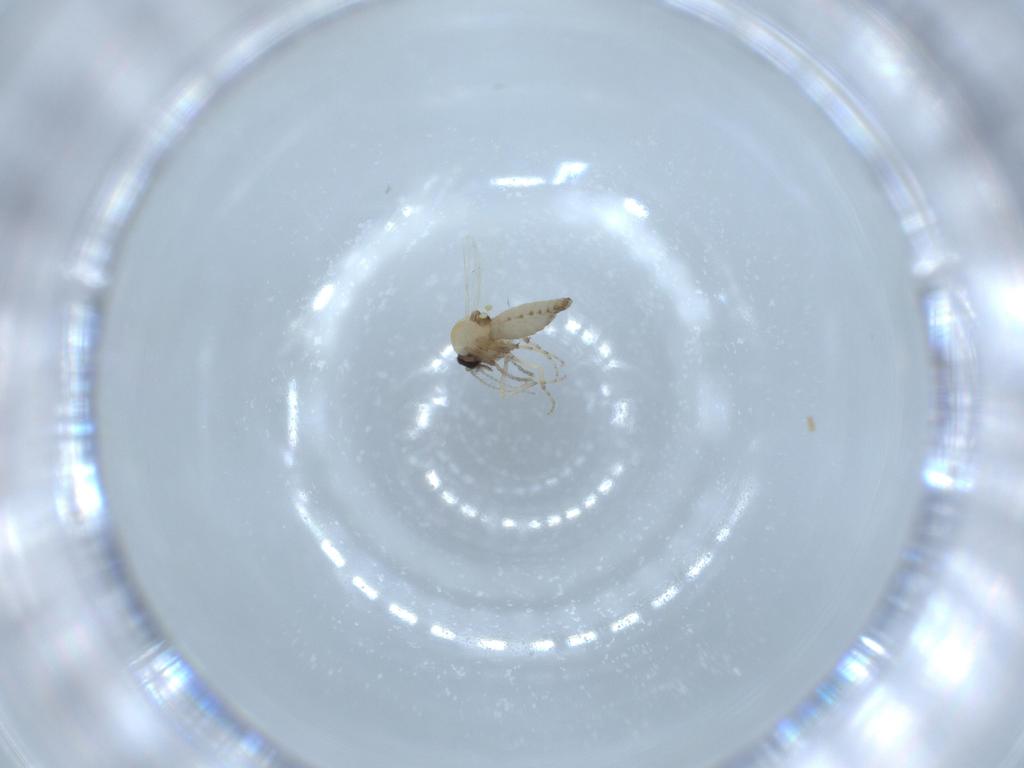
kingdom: Animalia
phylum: Arthropoda
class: Insecta
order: Diptera
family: Ceratopogonidae
